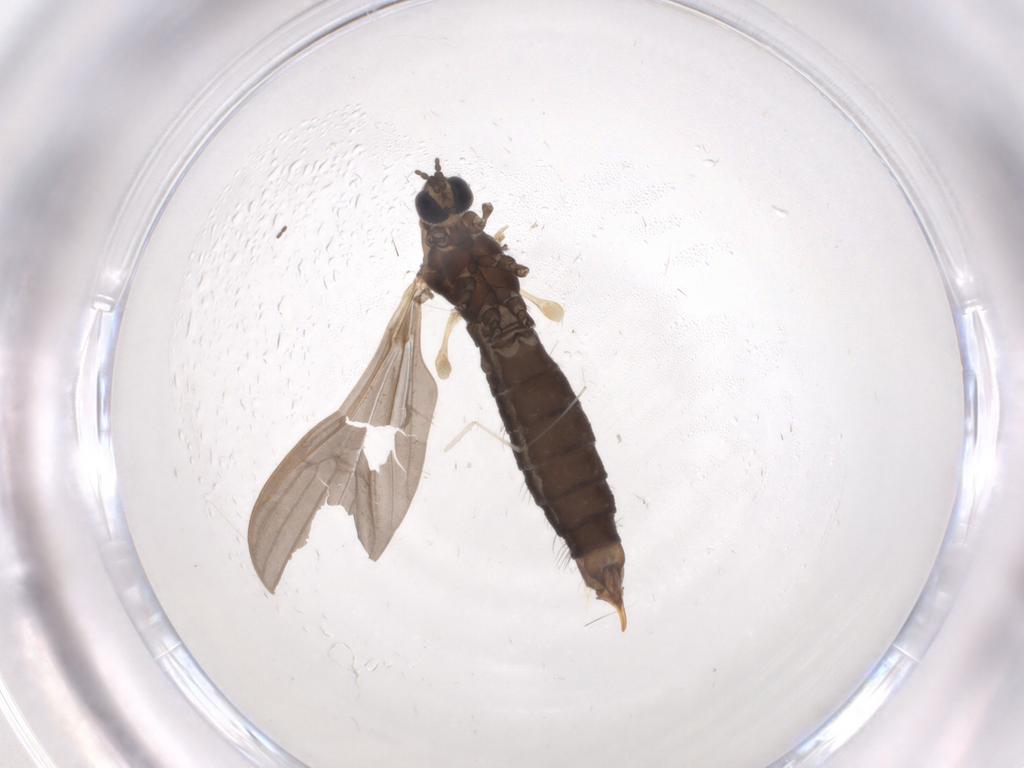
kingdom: Animalia
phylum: Arthropoda
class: Insecta
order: Diptera
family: Limoniidae
